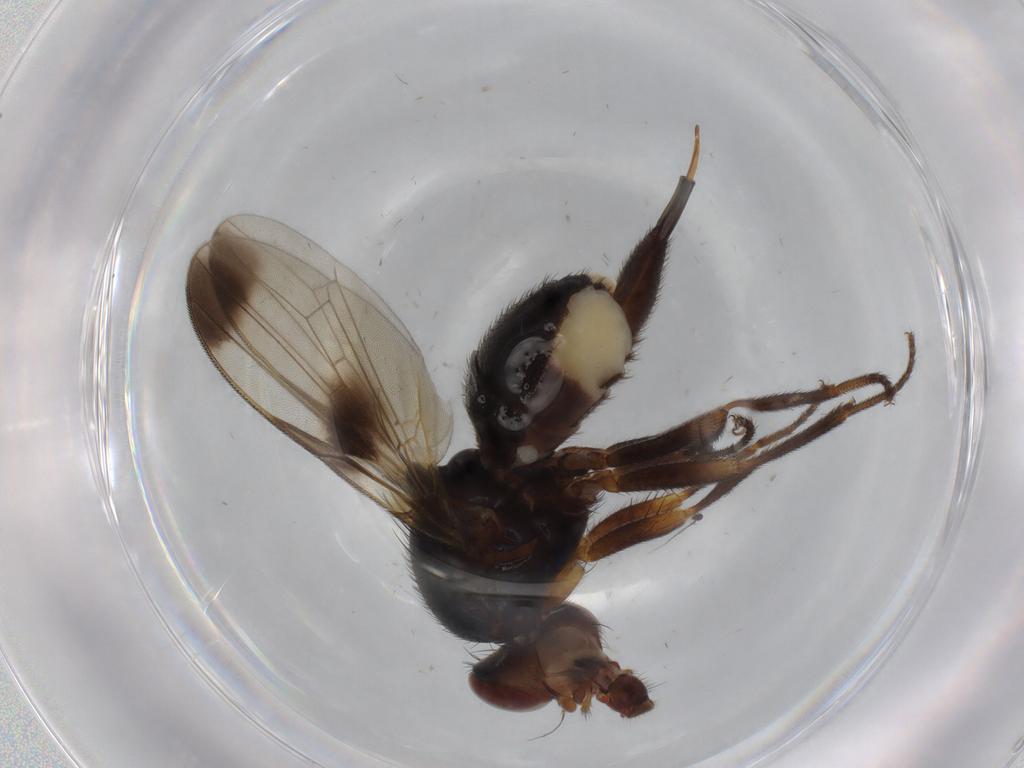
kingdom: Animalia
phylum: Arthropoda
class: Insecta
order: Diptera
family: Ulidiidae
